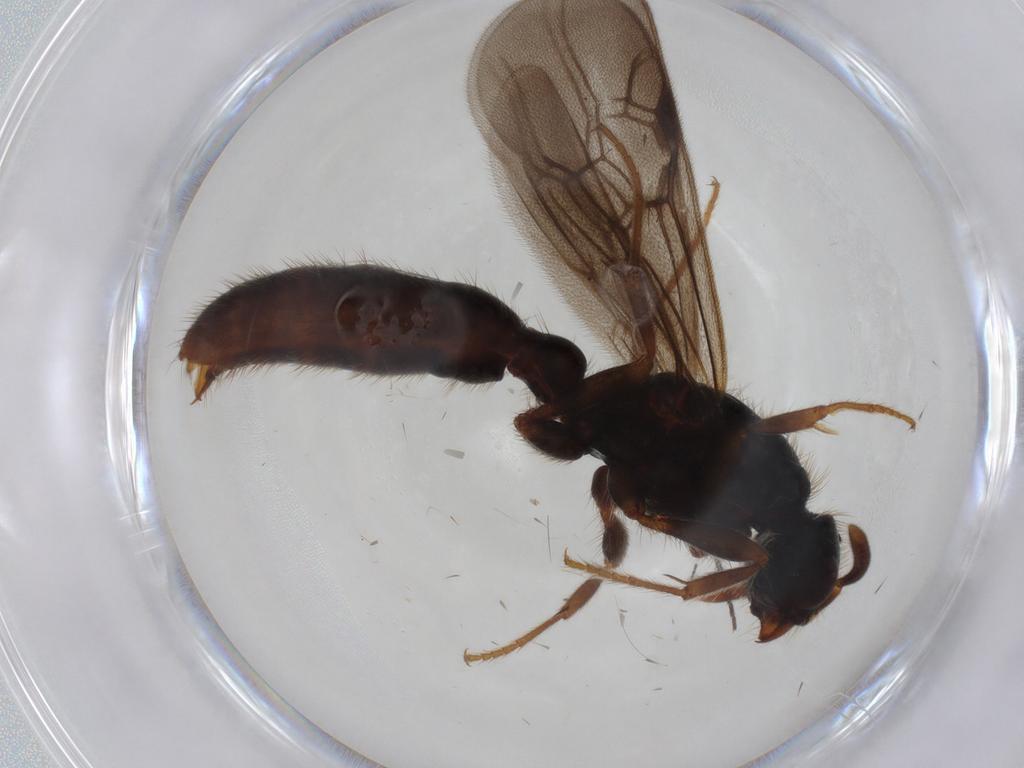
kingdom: Animalia
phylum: Arthropoda
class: Insecta
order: Hymenoptera
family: Formicidae
